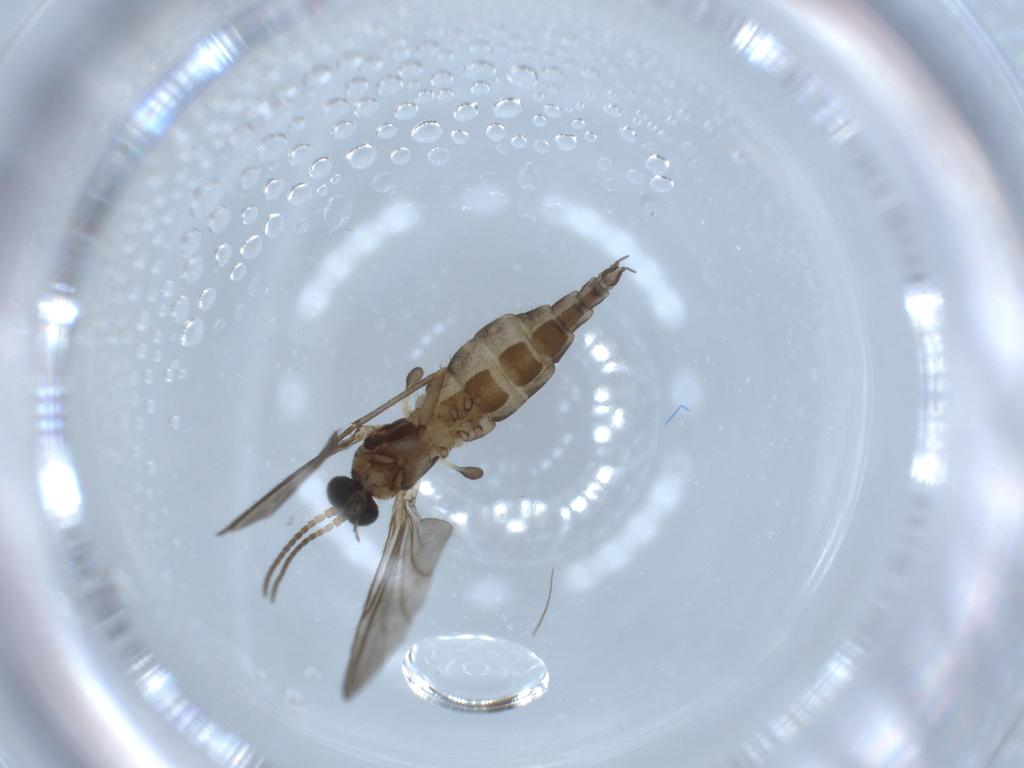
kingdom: Animalia
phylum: Arthropoda
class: Insecta
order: Diptera
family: Sciaridae
